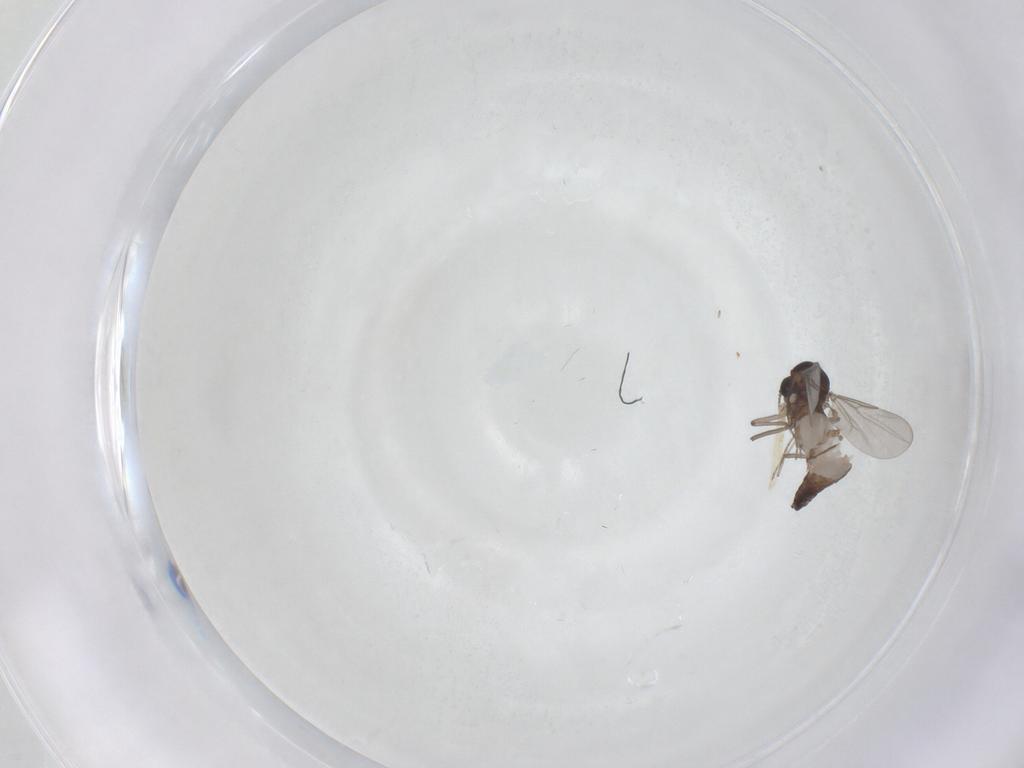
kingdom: Animalia
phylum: Arthropoda
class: Insecta
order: Diptera
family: Ceratopogonidae
